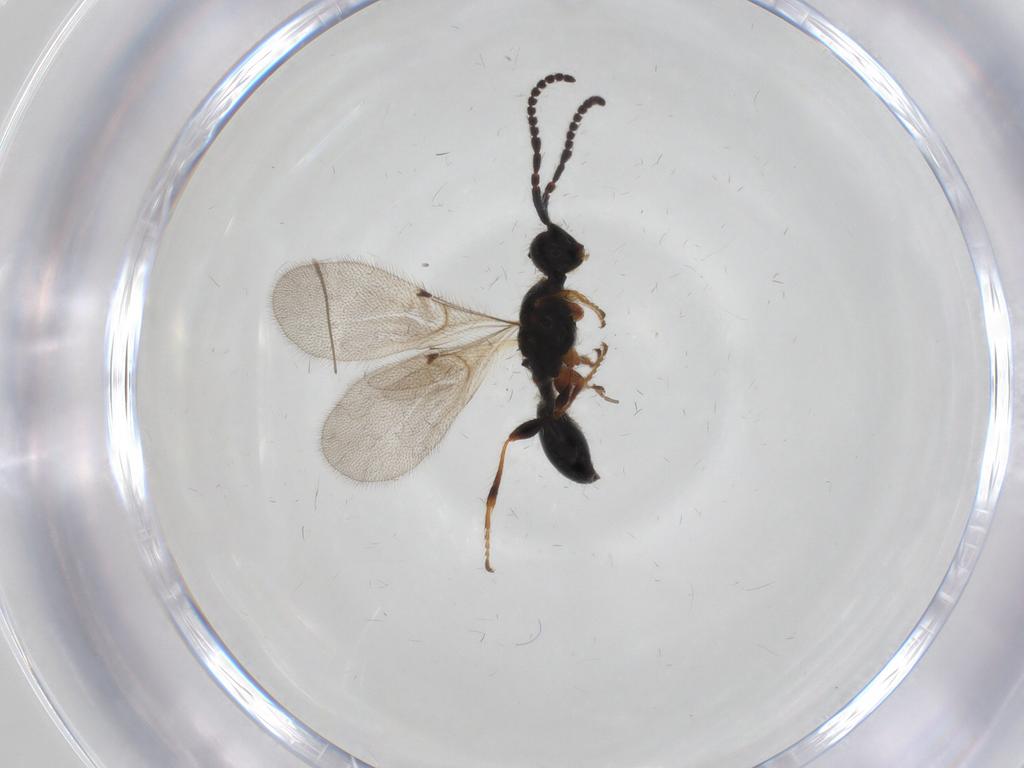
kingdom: Animalia
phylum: Arthropoda
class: Insecta
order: Hymenoptera
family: Diapriidae
